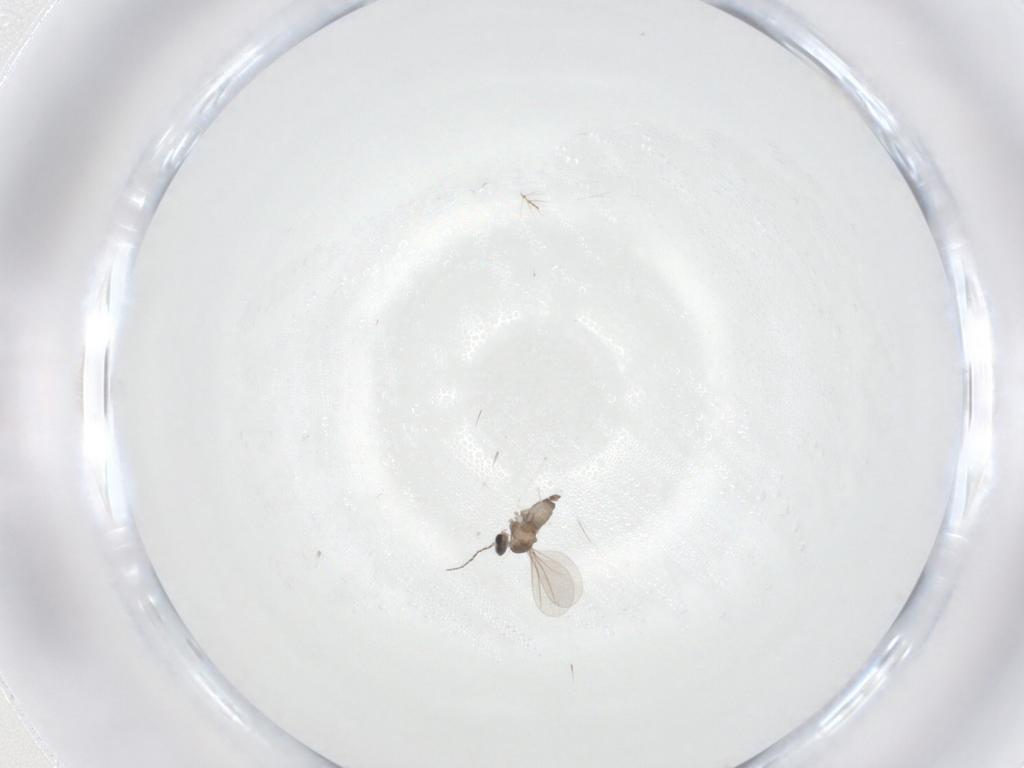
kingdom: Animalia
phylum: Arthropoda
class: Insecta
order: Diptera
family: Cecidomyiidae
